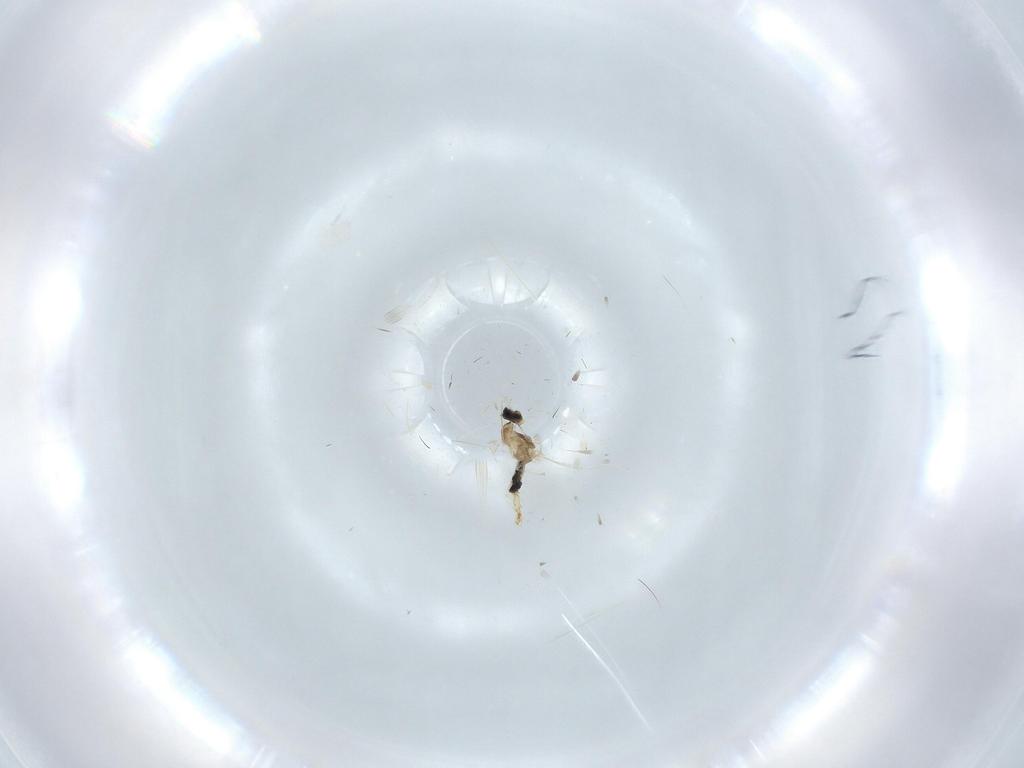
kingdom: Animalia
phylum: Arthropoda
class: Insecta
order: Diptera
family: Cecidomyiidae
